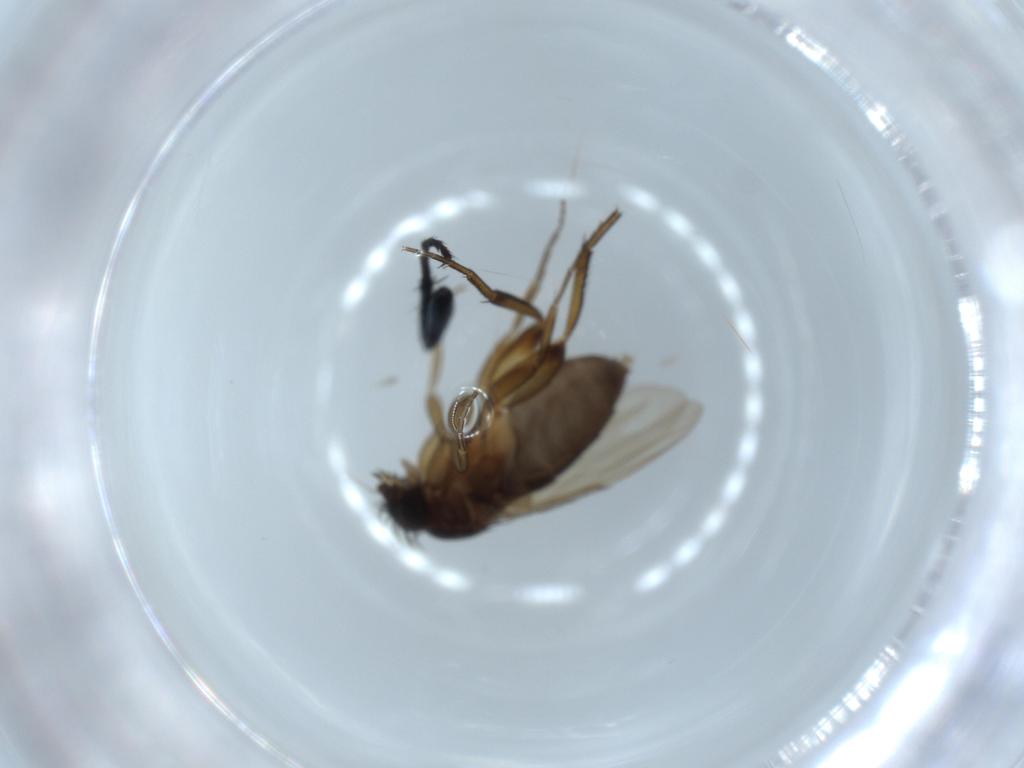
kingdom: Animalia
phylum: Arthropoda
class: Insecta
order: Diptera
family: Phoridae
